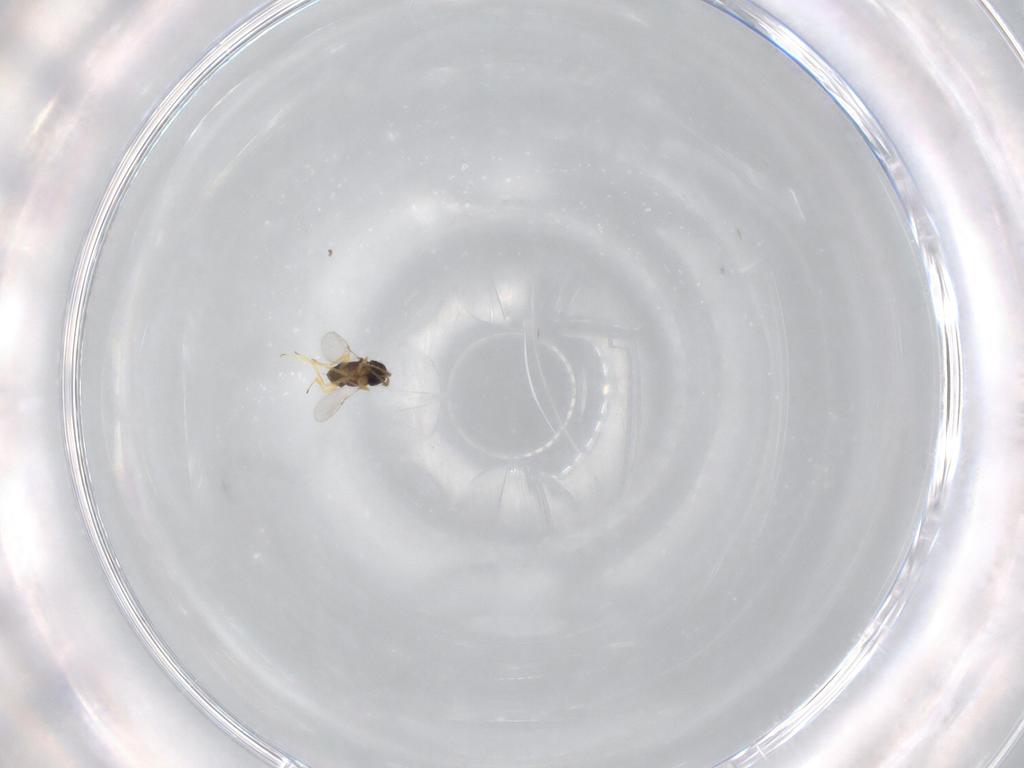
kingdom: Animalia
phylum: Arthropoda
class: Insecta
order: Hymenoptera
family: Encyrtidae
